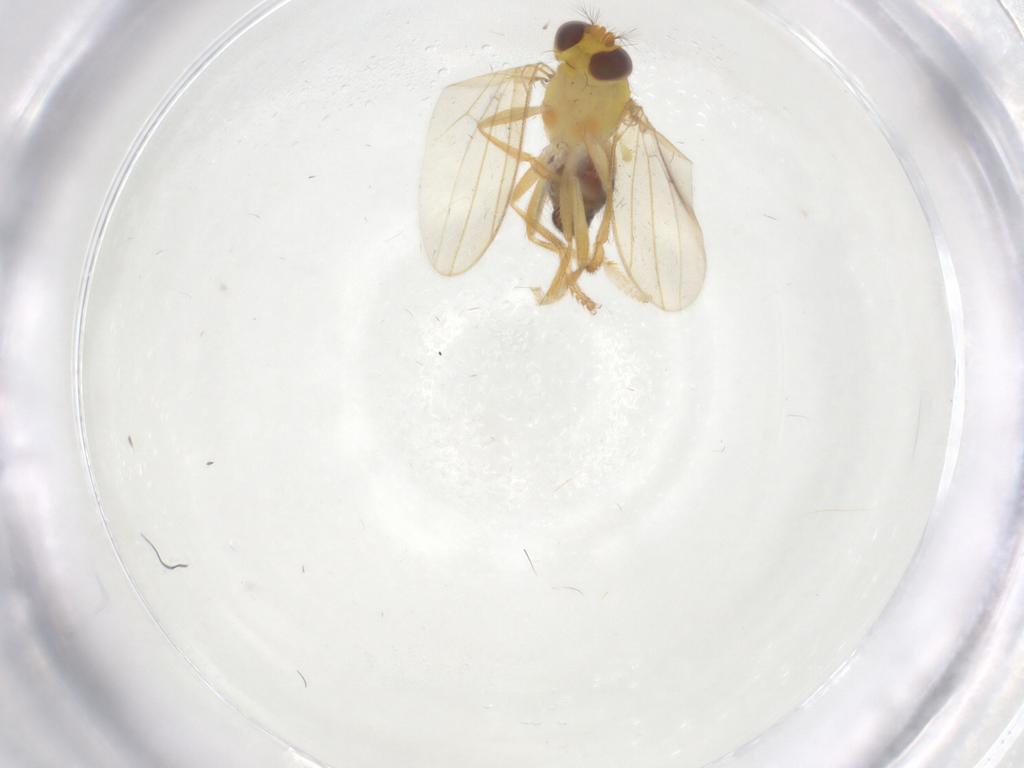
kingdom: Animalia
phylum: Arthropoda
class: Insecta
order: Diptera
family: Periscelididae
